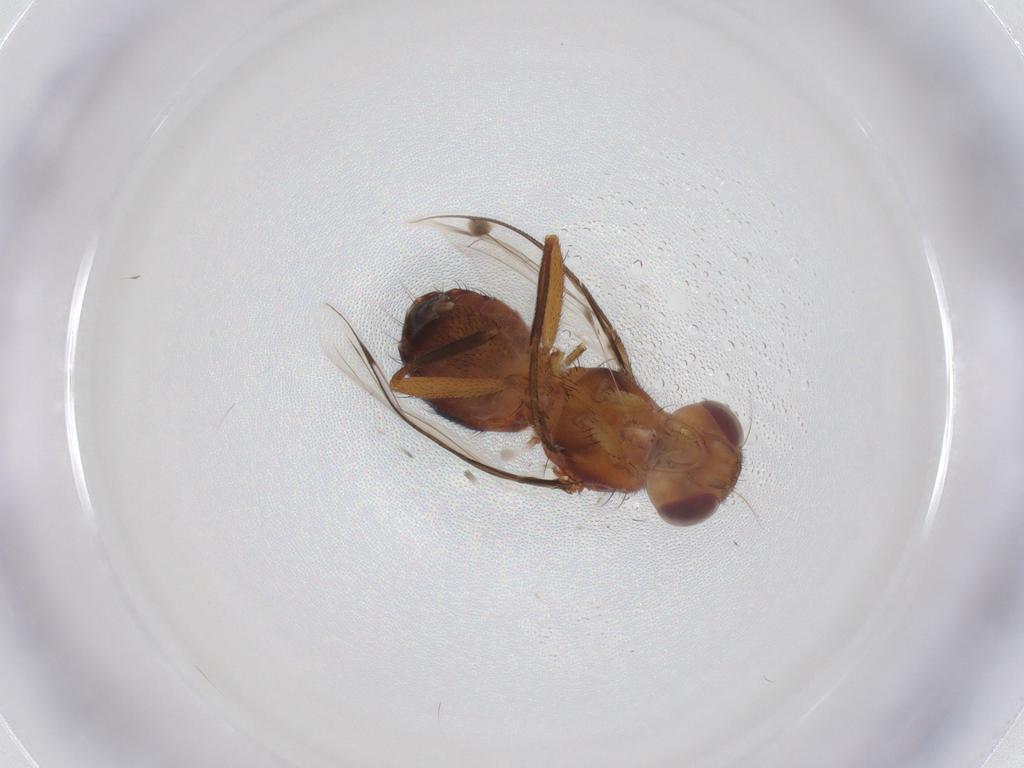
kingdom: Animalia
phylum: Arthropoda
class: Insecta
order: Diptera
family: Richardiidae
